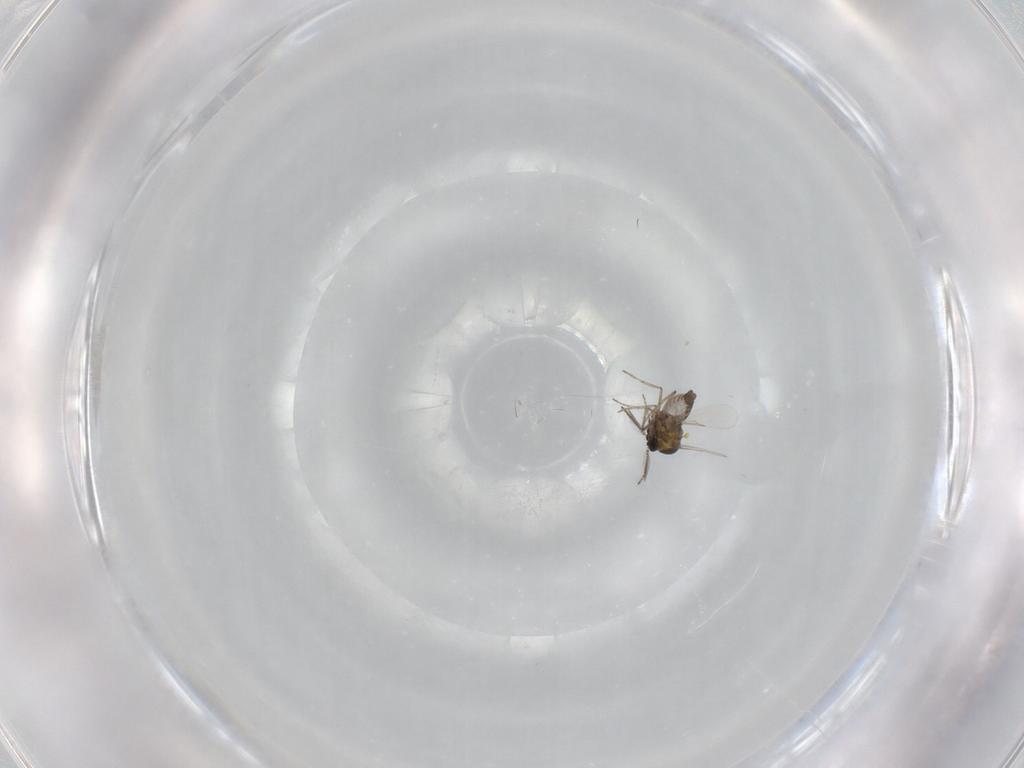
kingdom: Animalia
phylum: Arthropoda
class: Insecta
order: Diptera
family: Ceratopogonidae
